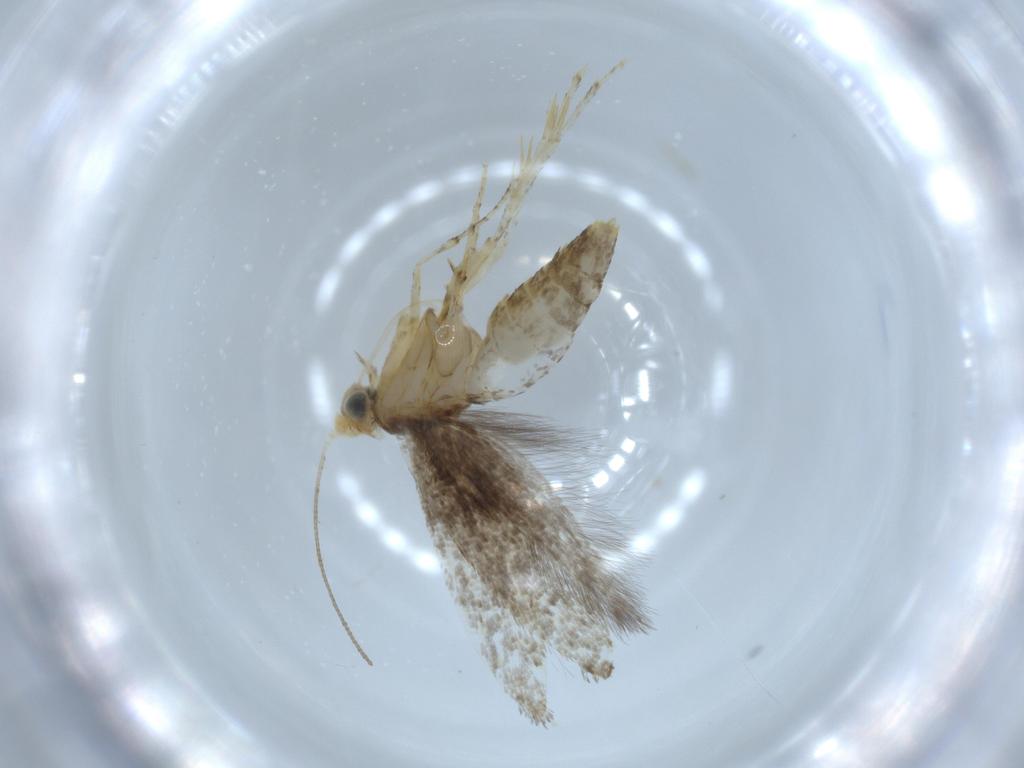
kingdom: Animalia
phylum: Arthropoda
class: Insecta
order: Lepidoptera
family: Argyresthiidae
